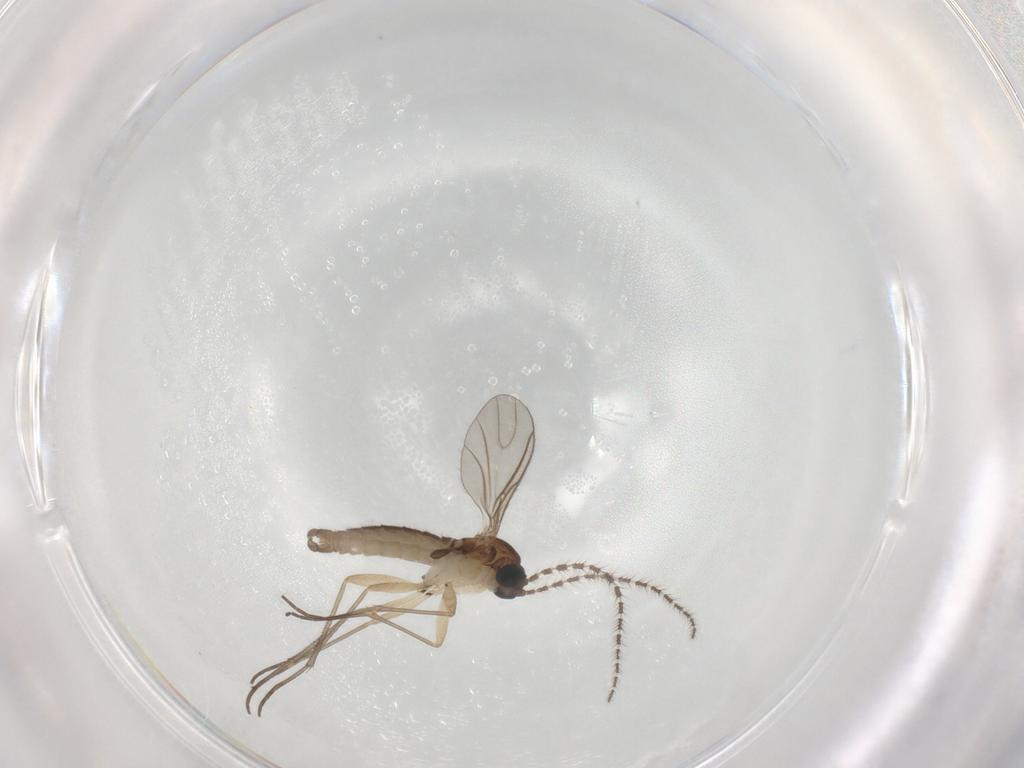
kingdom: Animalia
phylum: Arthropoda
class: Insecta
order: Diptera
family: Sciaridae
